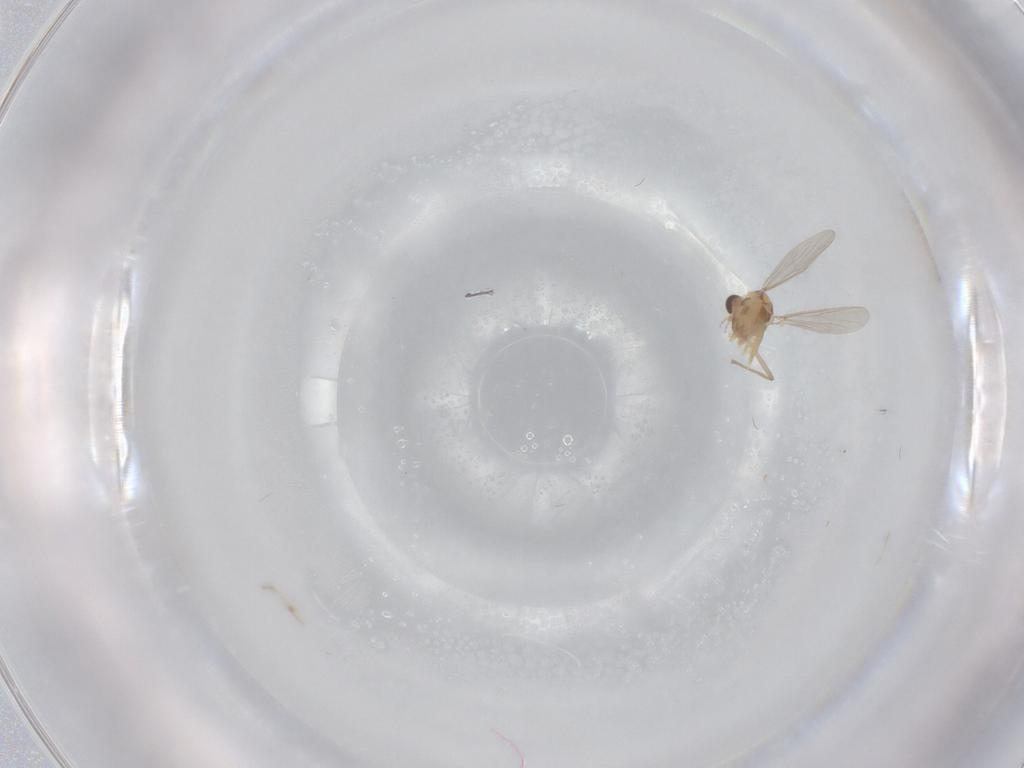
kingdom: Animalia
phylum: Arthropoda
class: Insecta
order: Diptera
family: Chironomidae
